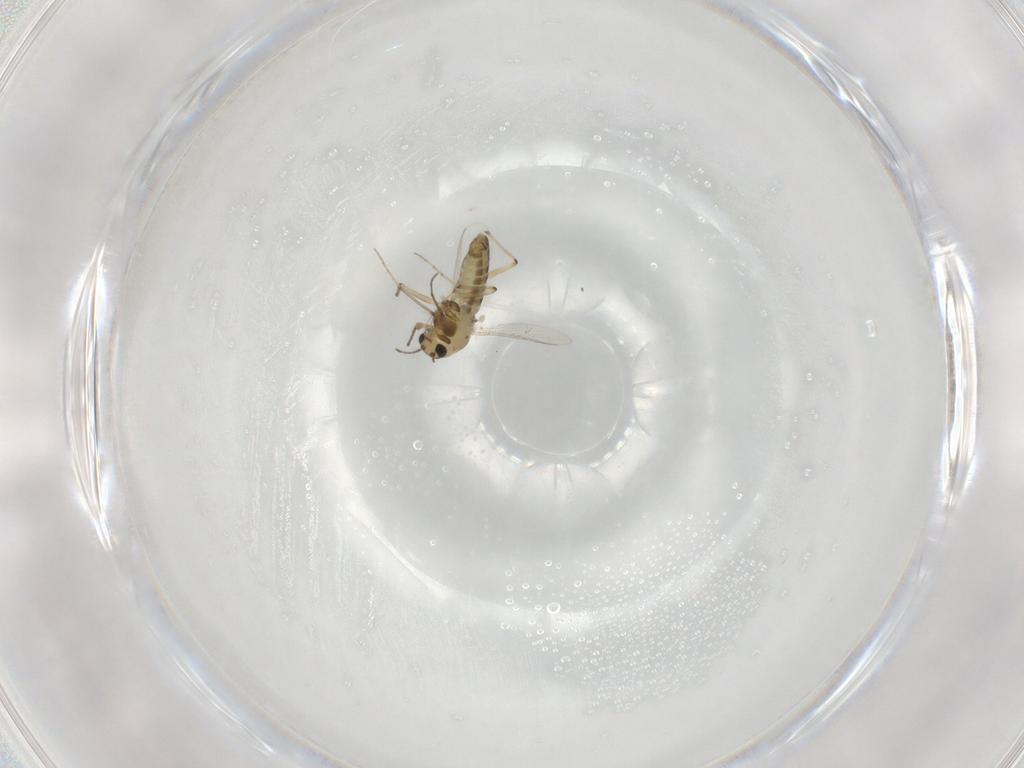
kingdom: Animalia
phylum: Arthropoda
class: Insecta
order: Diptera
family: Chironomidae
